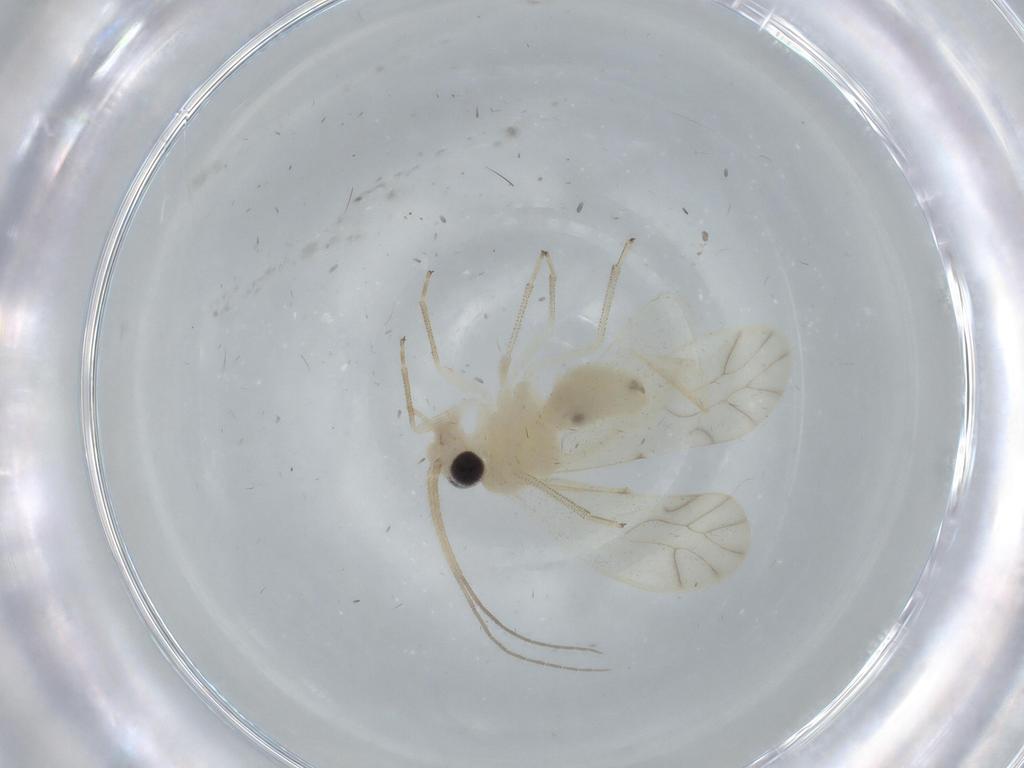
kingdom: Animalia
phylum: Arthropoda
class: Insecta
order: Psocodea
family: Caeciliusidae
